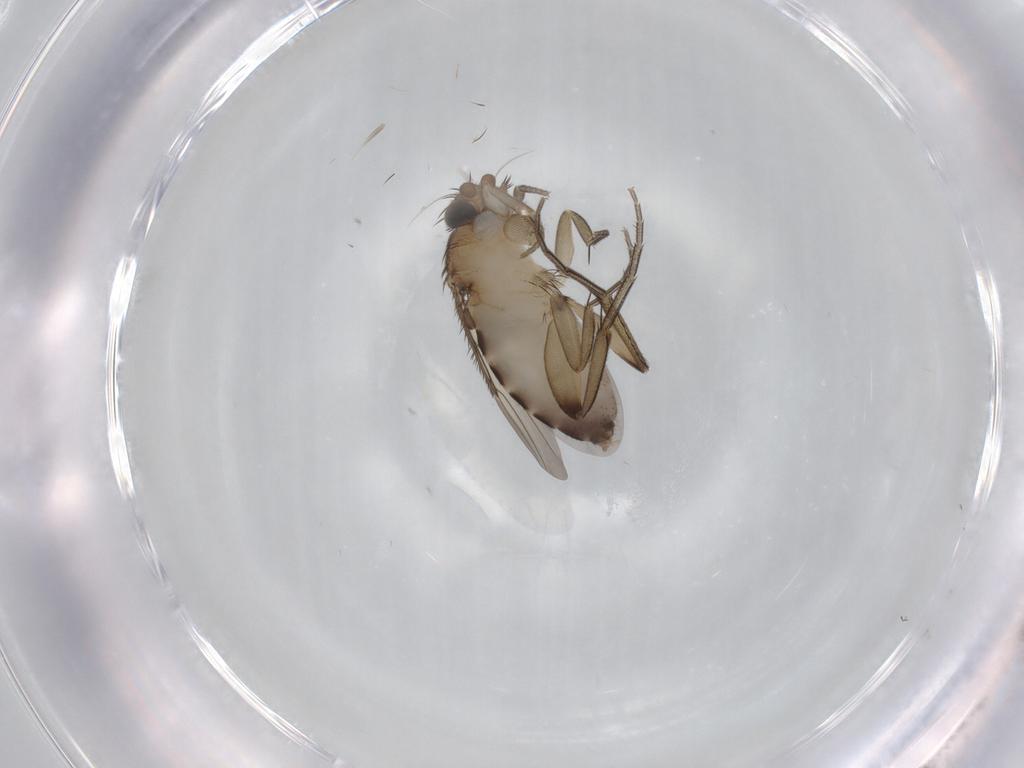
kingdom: Animalia
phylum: Arthropoda
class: Insecta
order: Diptera
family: Phoridae
